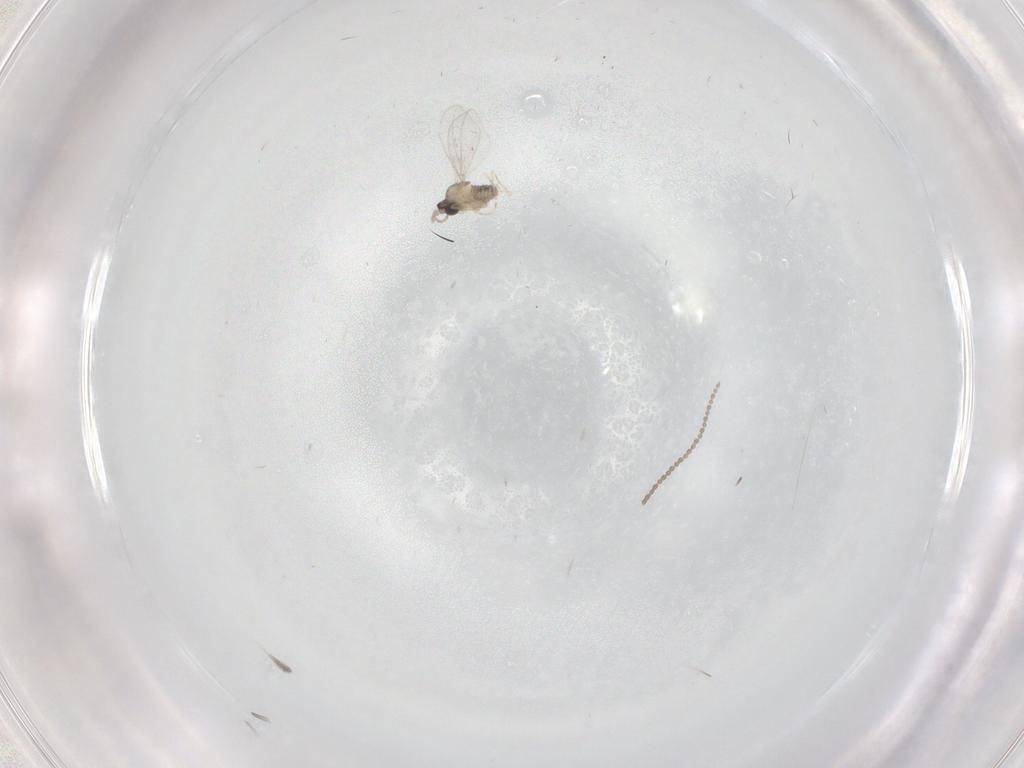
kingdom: Animalia
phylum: Arthropoda
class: Insecta
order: Diptera
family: Cecidomyiidae
